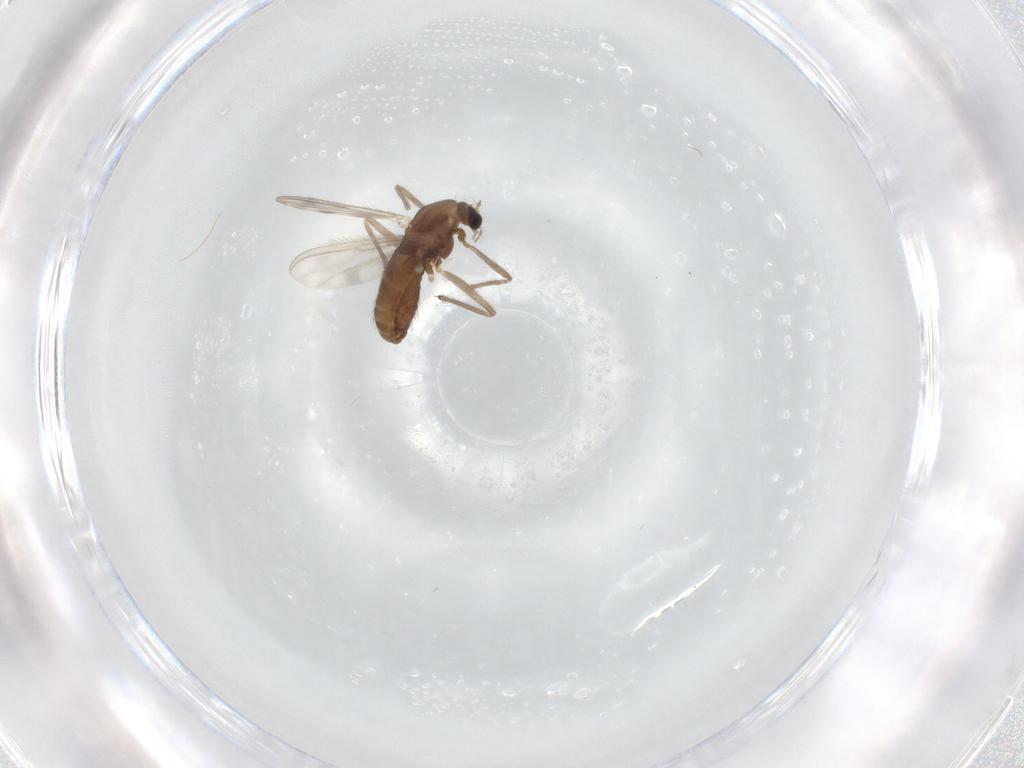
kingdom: Animalia
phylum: Arthropoda
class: Insecta
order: Diptera
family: Chironomidae
